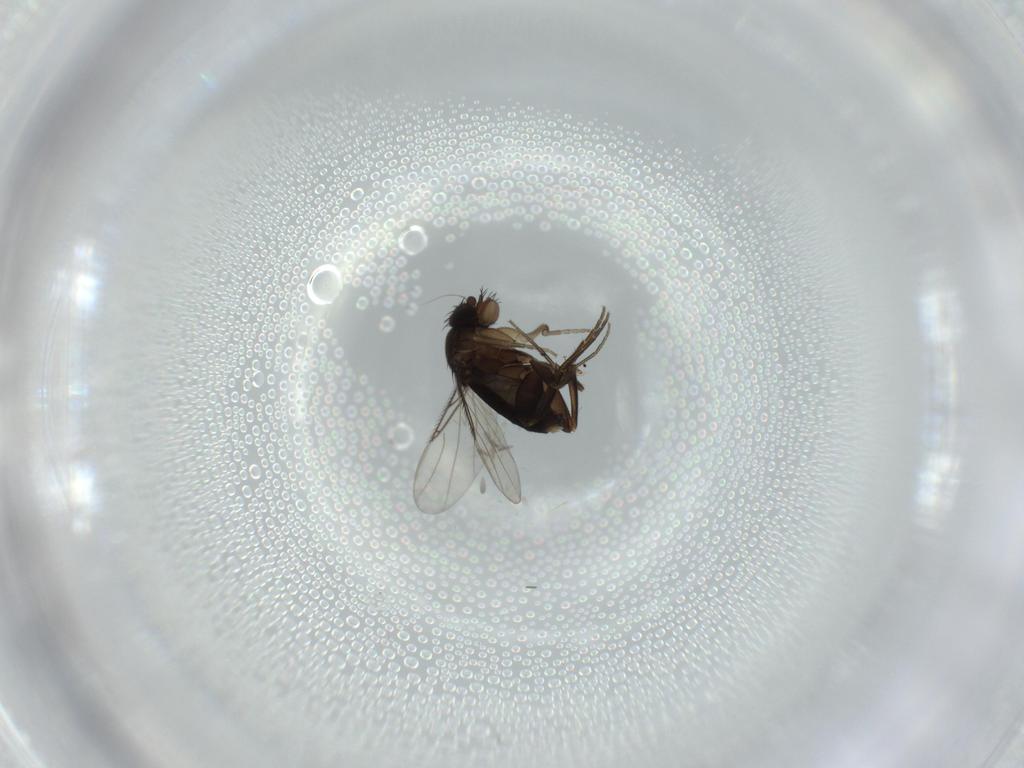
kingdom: Animalia
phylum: Arthropoda
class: Insecta
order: Diptera
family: Phoridae
